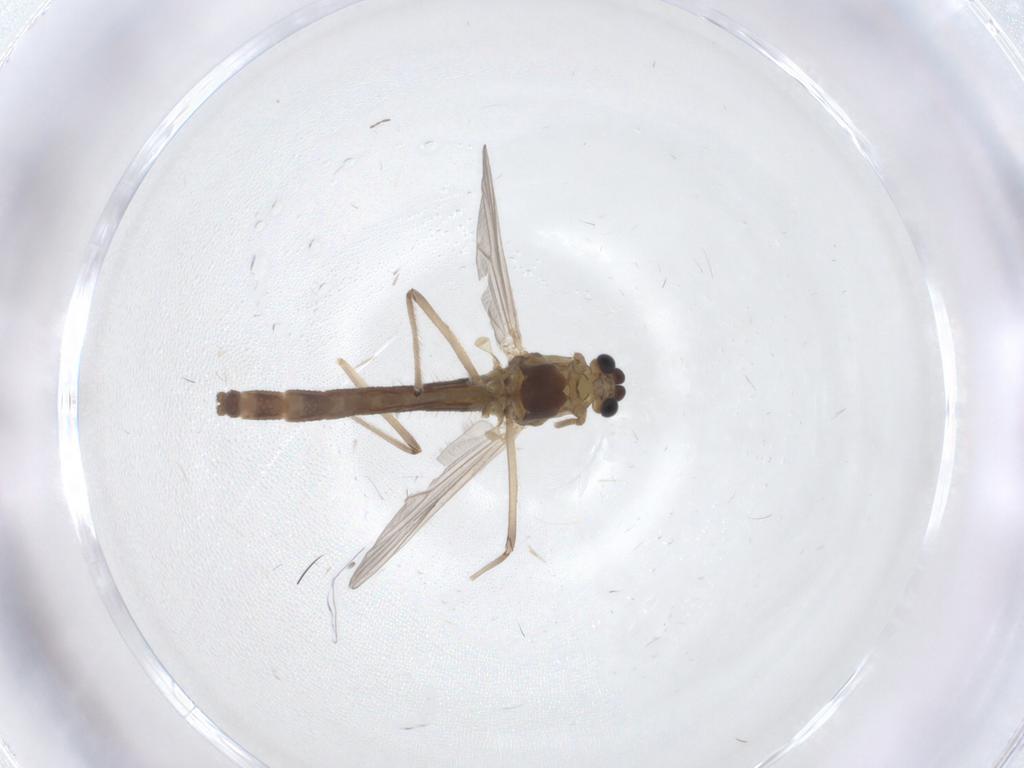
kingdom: Animalia
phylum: Arthropoda
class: Insecta
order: Diptera
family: Chironomidae
